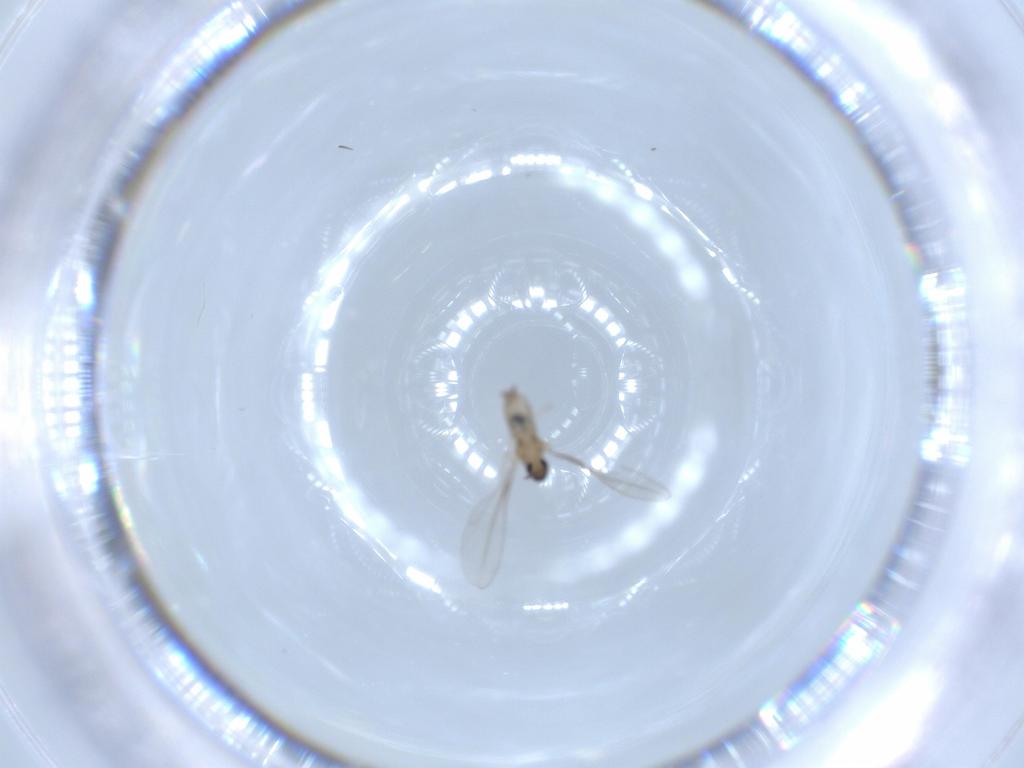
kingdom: Animalia
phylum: Arthropoda
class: Insecta
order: Diptera
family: Cecidomyiidae
